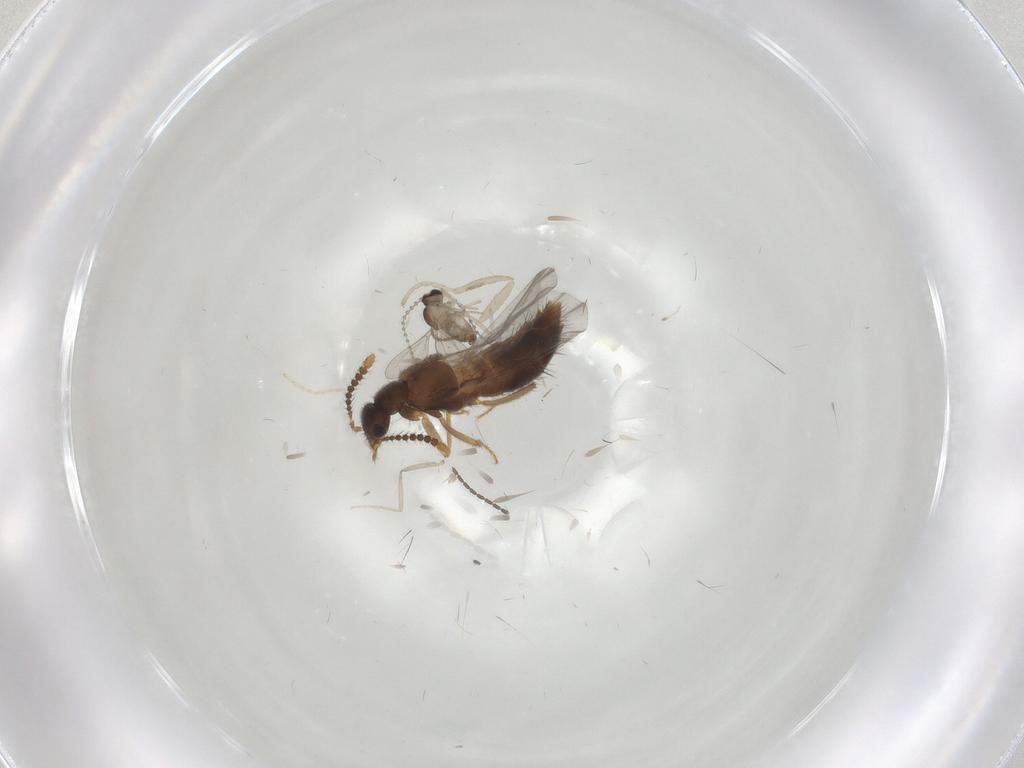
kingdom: Animalia
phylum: Arthropoda
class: Insecta
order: Diptera
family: Cecidomyiidae
